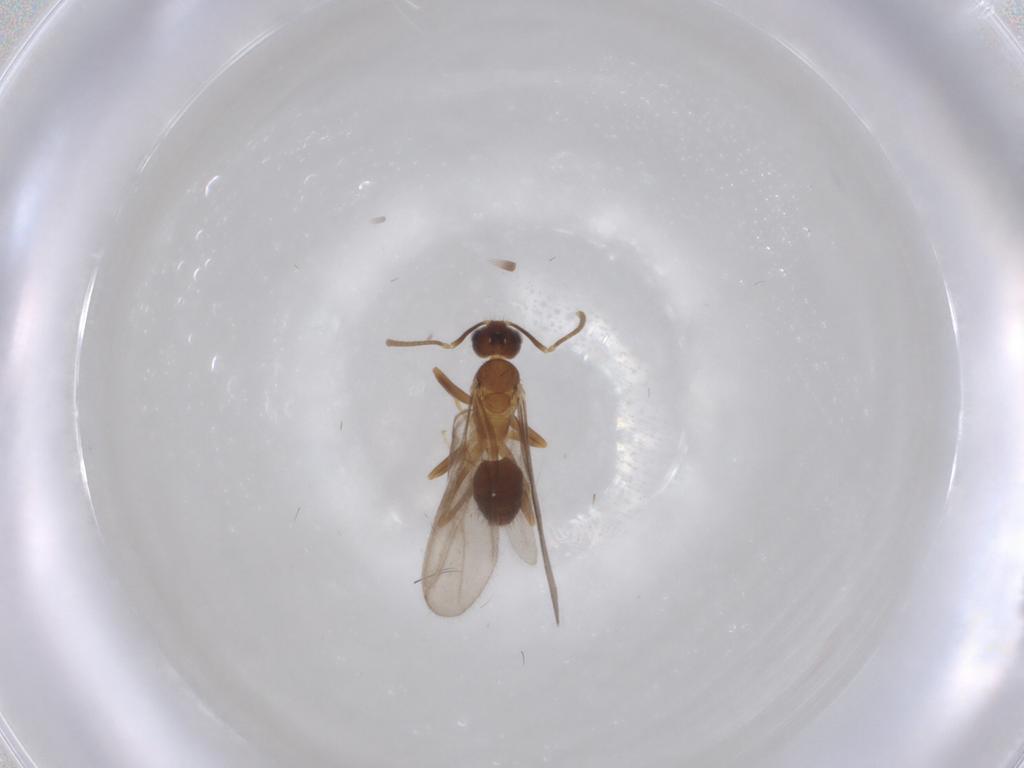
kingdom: Animalia
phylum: Arthropoda
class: Insecta
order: Hymenoptera
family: Formicidae
